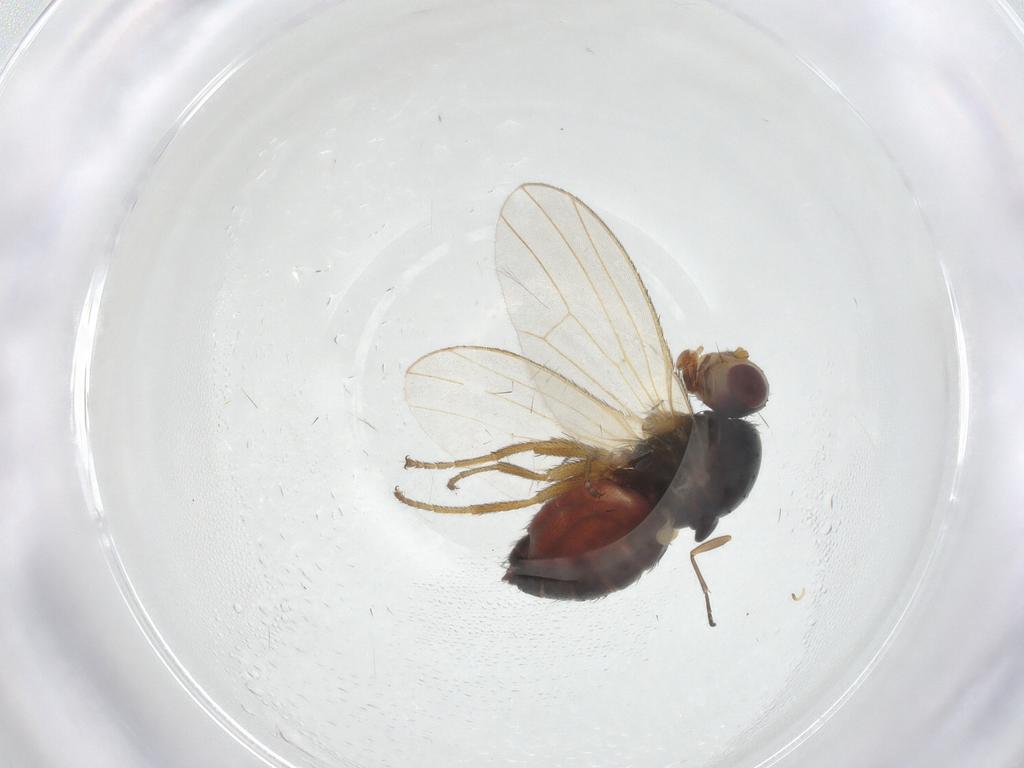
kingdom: Animalia
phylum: Arthropoda
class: Insecta
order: Diptera
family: Heleomyzidae
